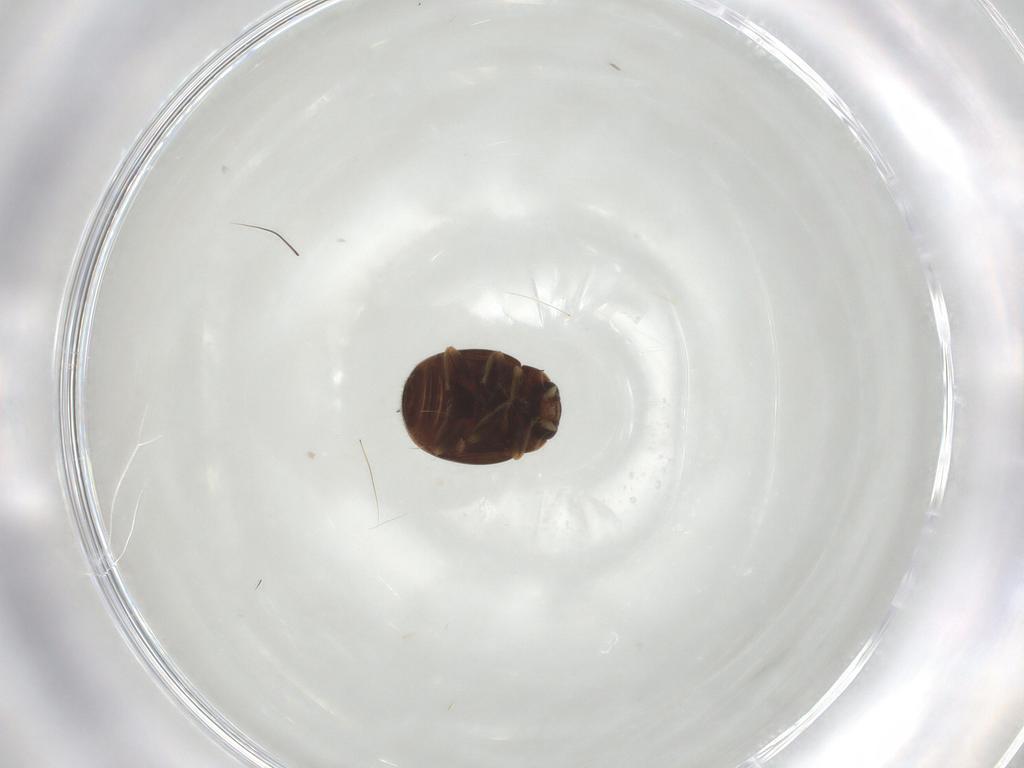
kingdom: Animalia
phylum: Arthropoda
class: Insecta
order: Coleoptera
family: Coccinellidae
